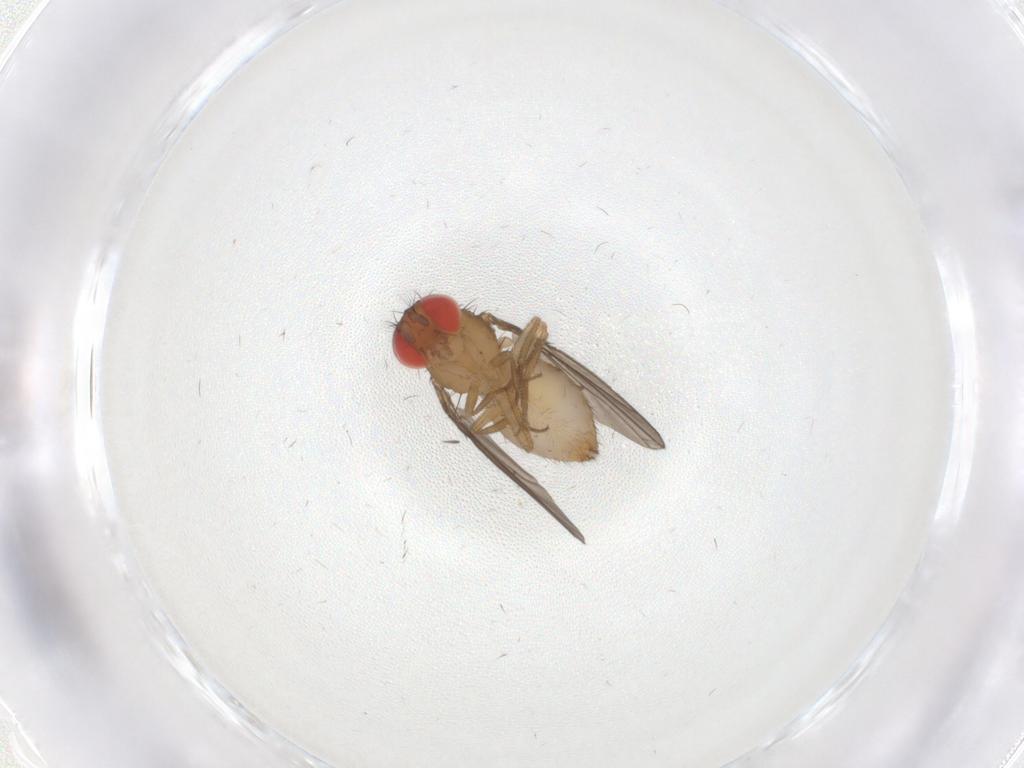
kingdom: Animalia
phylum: Arthropoda
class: Insecta
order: Diptera
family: Drosophilidae
